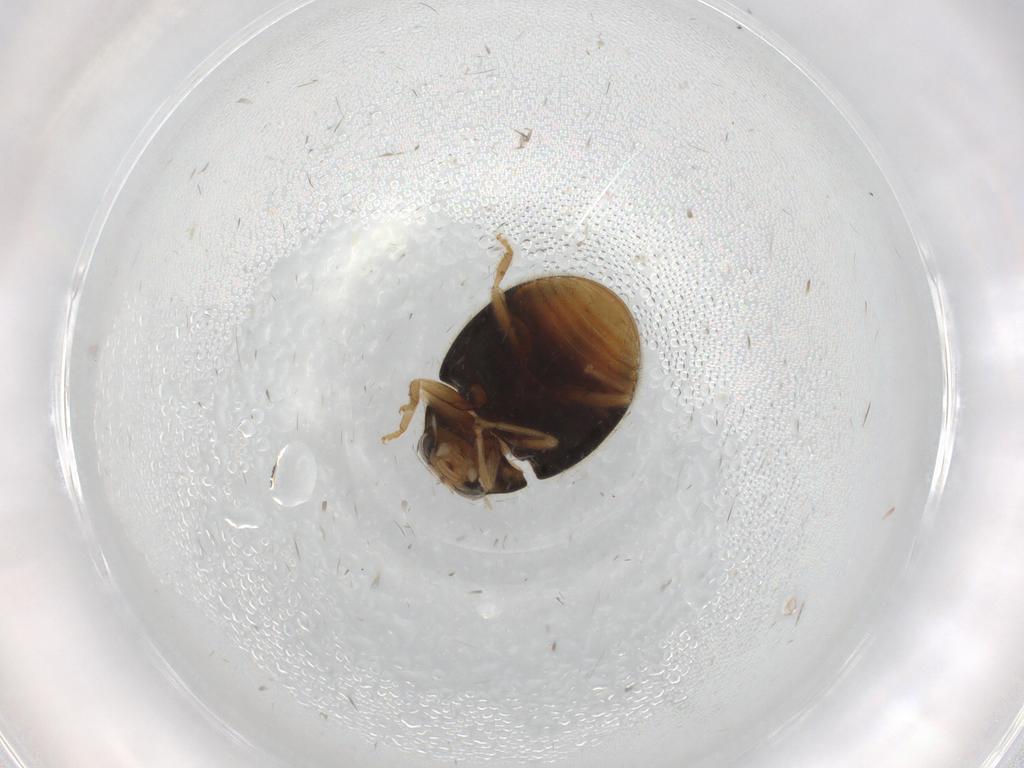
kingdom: Animalia
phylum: Arthropoda
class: Insecta
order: Coleoptera
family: Coccinellidae
